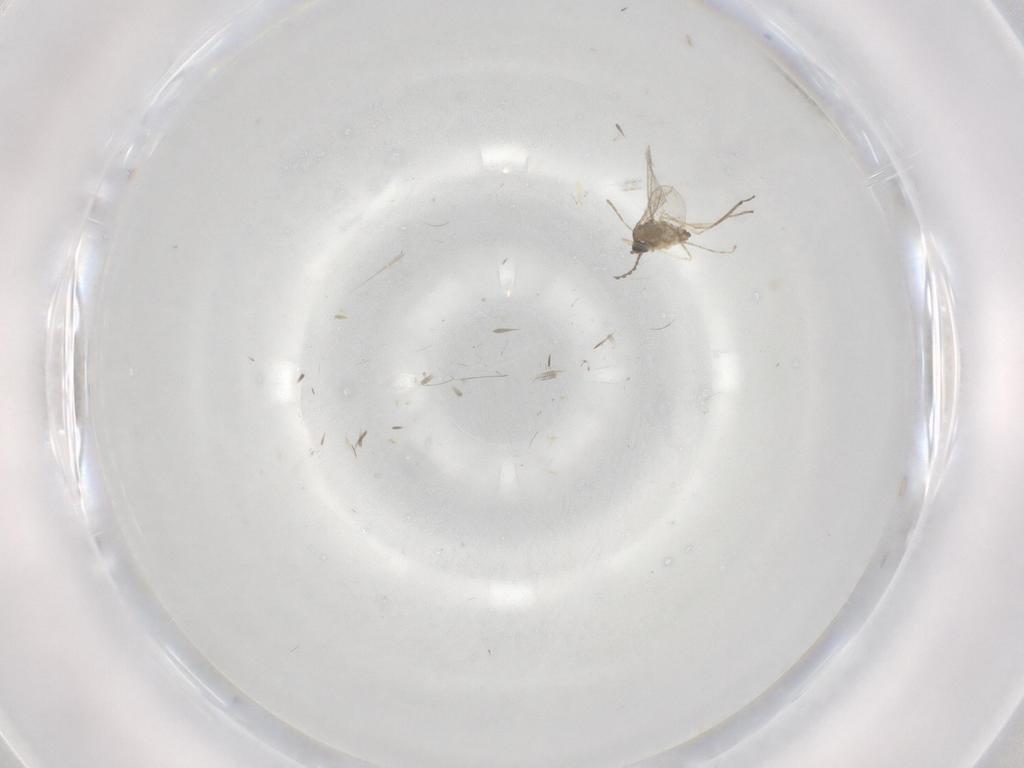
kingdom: Animalia
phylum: Arthropoda
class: Insecta
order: Diptera
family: Cecidomyiidae
